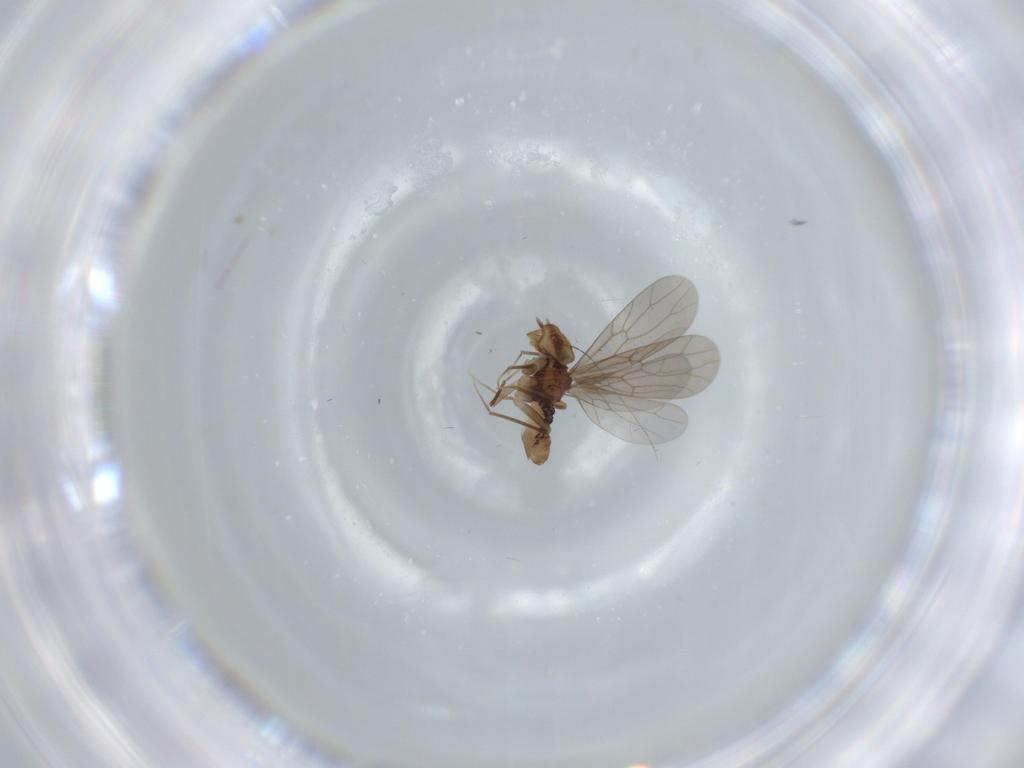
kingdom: Animalia
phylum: Arthropoda
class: Insecta
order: Psocodea
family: Lepidopsocidae
